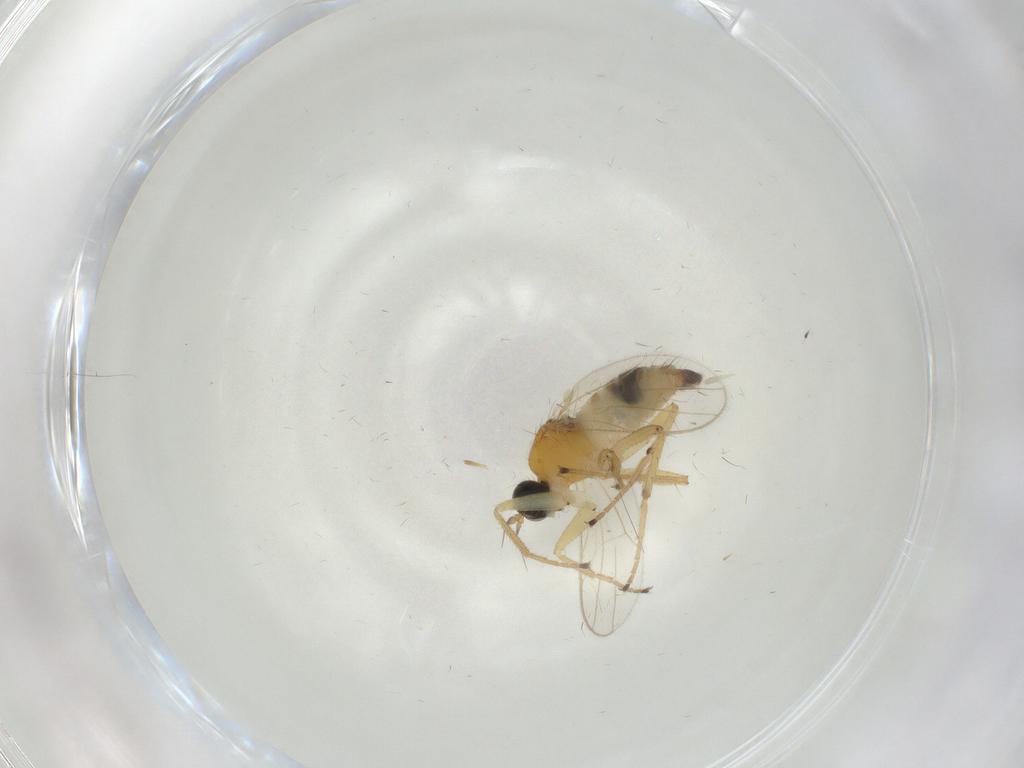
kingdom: Animalia
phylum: Arthropoda
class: Insecta
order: Diptera
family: Hybotidae
